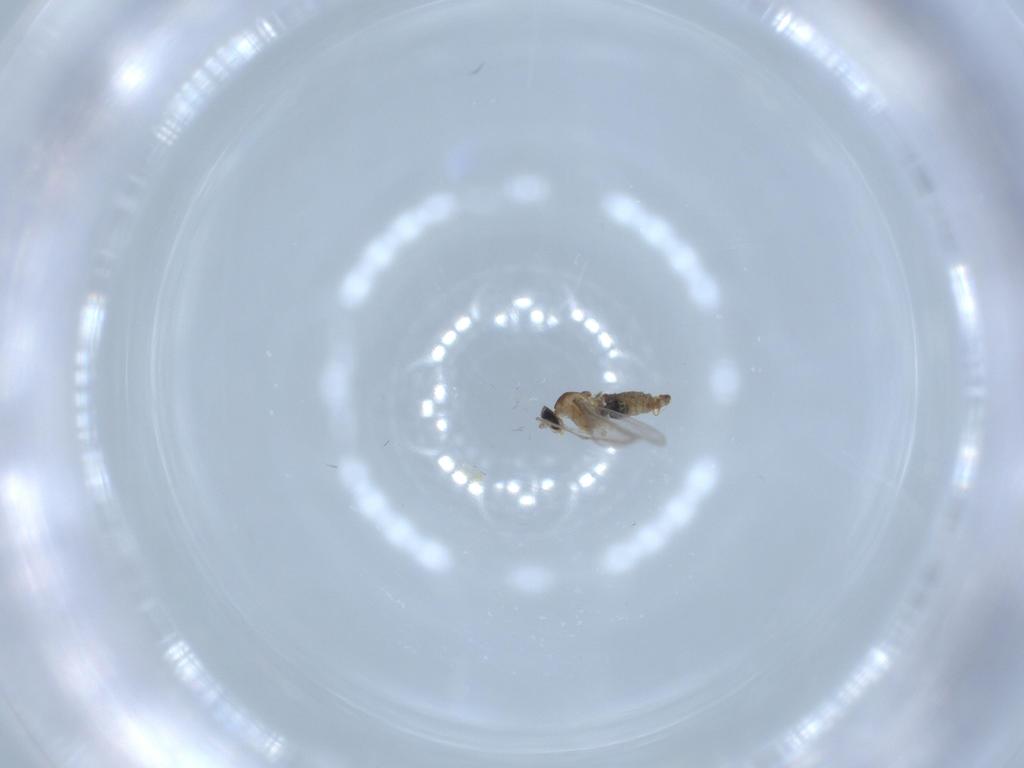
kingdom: Animalia
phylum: Arthropoda
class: Insecta
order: Diptera
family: Cecidomyiidae
